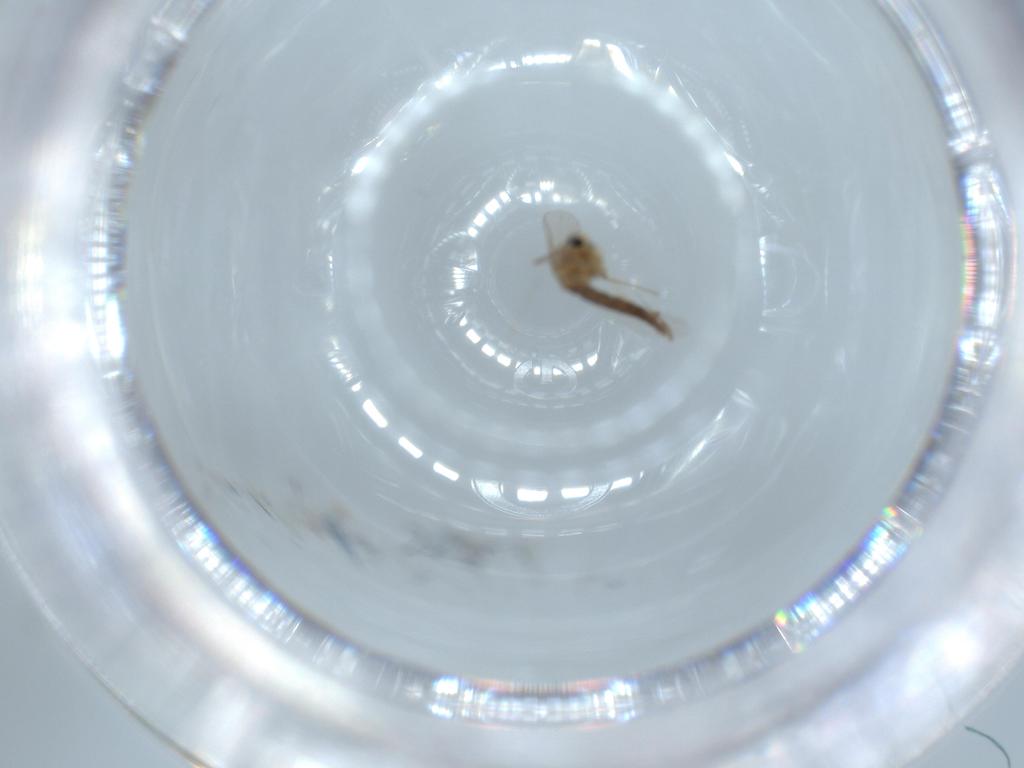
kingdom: Animalia
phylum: Arthropoda
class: Insecta
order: Diptera
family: Chironomidae
